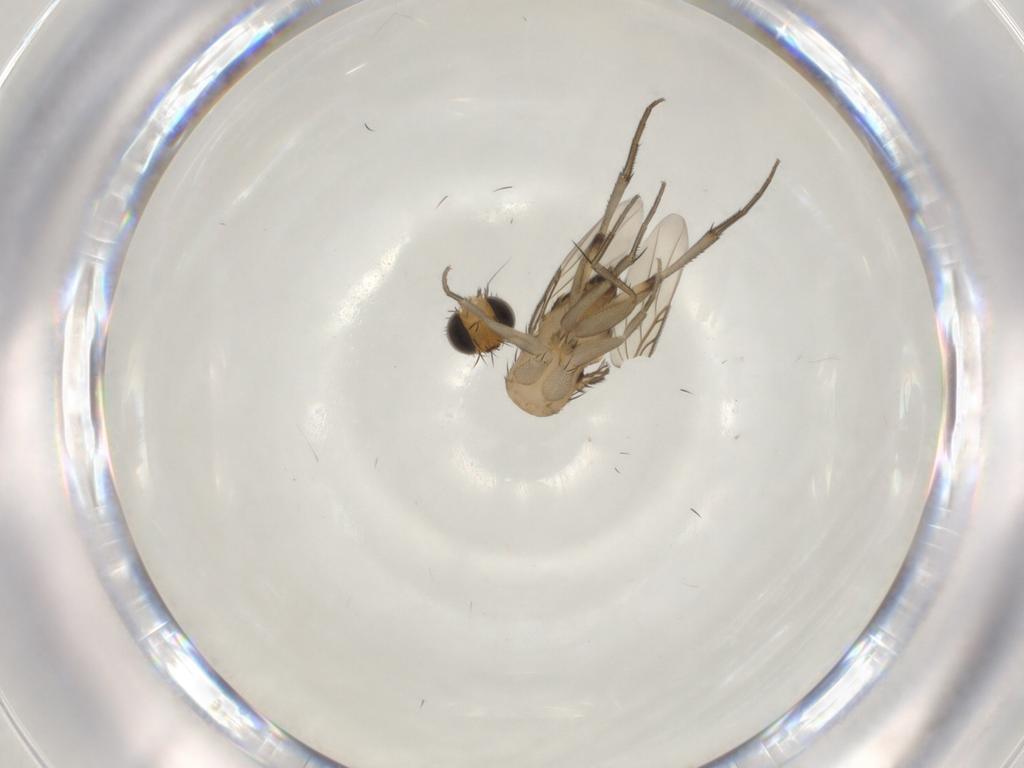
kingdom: Animalia
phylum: Arthropoda
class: Insecta
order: Diptera
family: Phoridae
